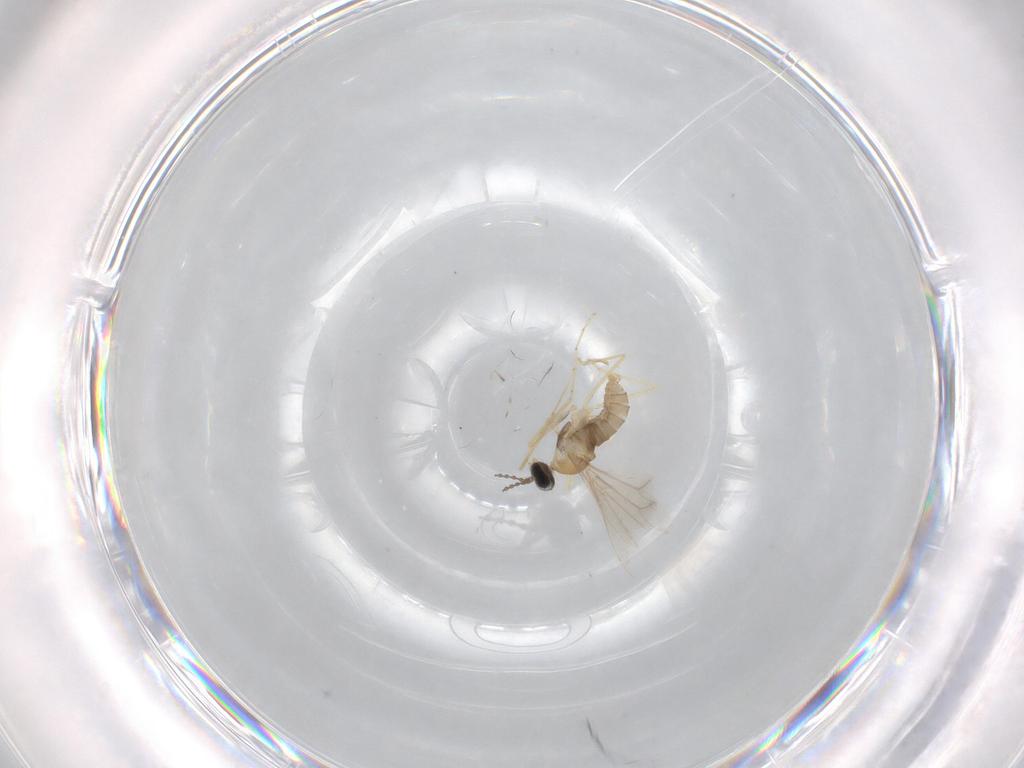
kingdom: Animalia
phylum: Arthropoda
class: Insecta
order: Diptera
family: Cecidomyiidae
